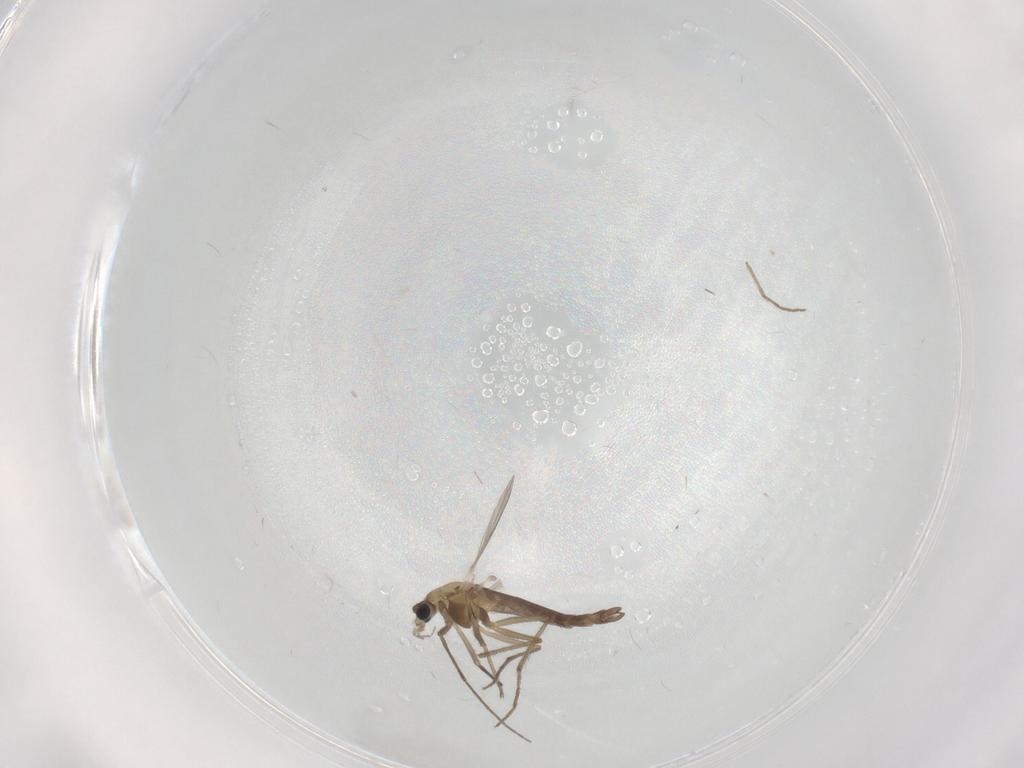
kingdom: Animalia
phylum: Arthropoda
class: Insecta
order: Diptera
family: Chironomidae
